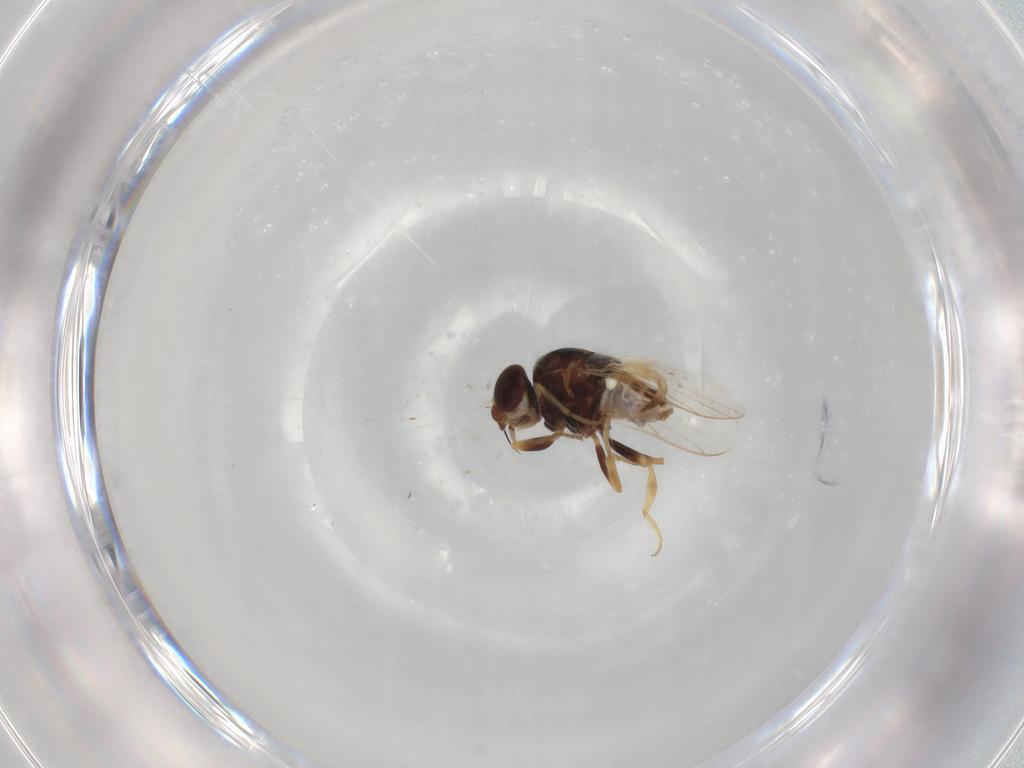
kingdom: Animalia
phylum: Arthropoda
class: Insecta
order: Diptera
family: Chloropidae
